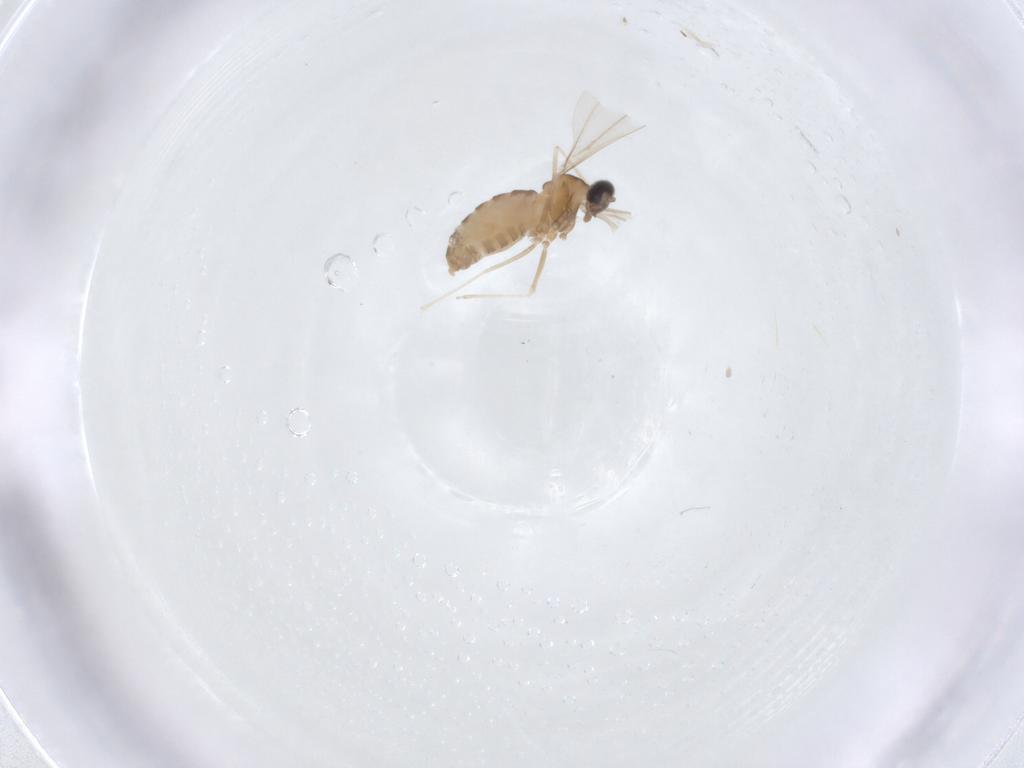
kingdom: Animalia
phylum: Arthropoda
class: Insecta
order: Diptera
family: Cecidomyiidae
